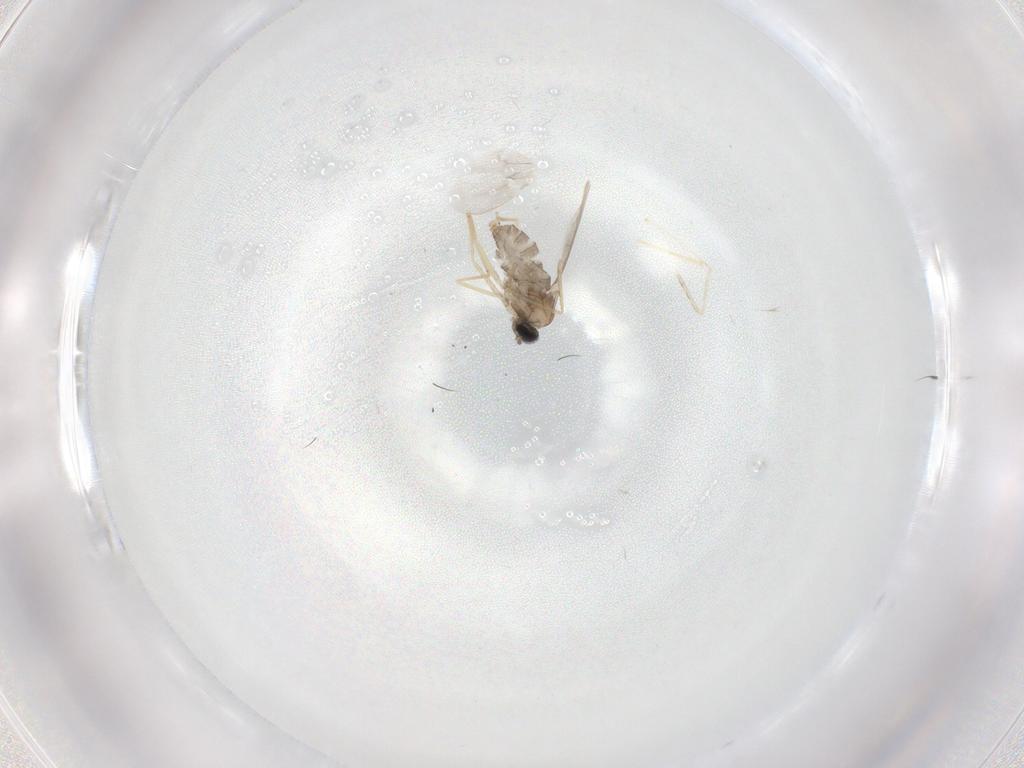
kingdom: Animalia
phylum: Arthropoda
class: Insecta
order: Diptera
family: Cecidomyiidae
